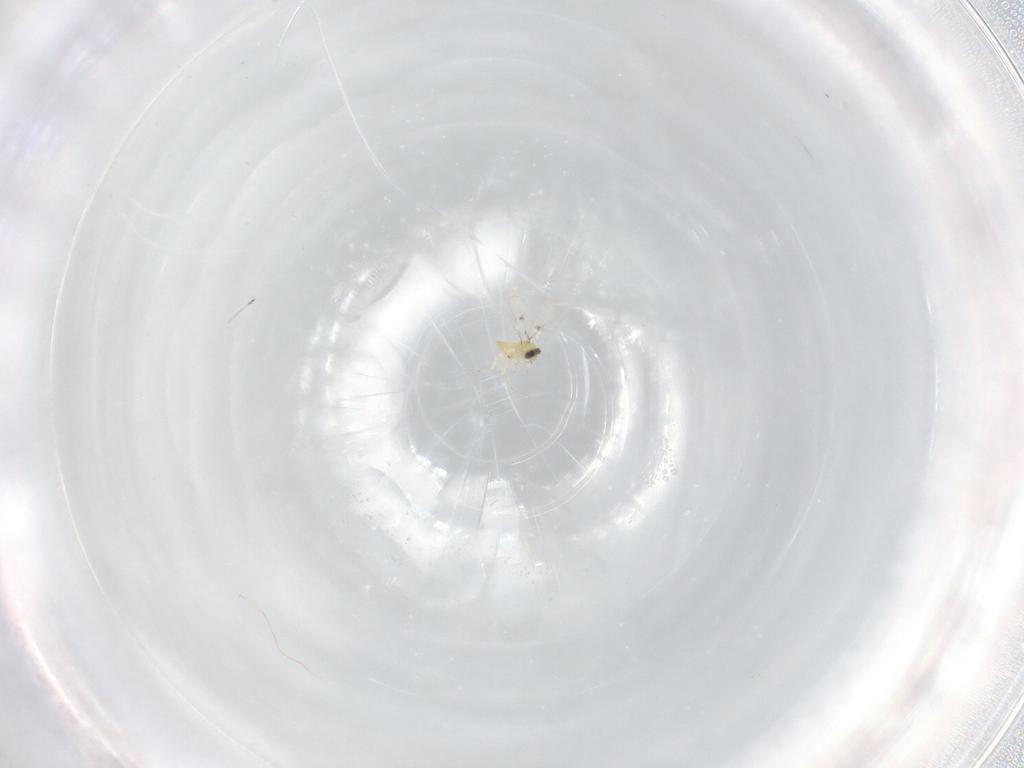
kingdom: Animalia
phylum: Arthropoda
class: Insecta
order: Hymenoptera
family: Trichogrammatidae
